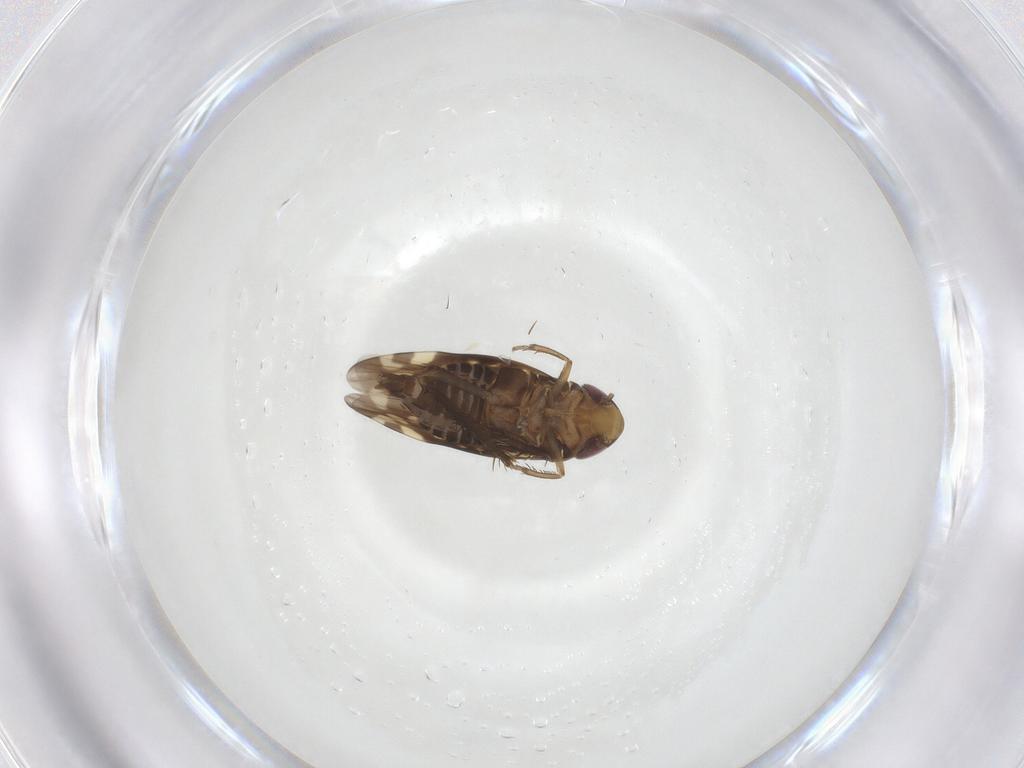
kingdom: Animalia
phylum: Arthropoda
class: Insecta
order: Hemiptera
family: Cicadellidae
